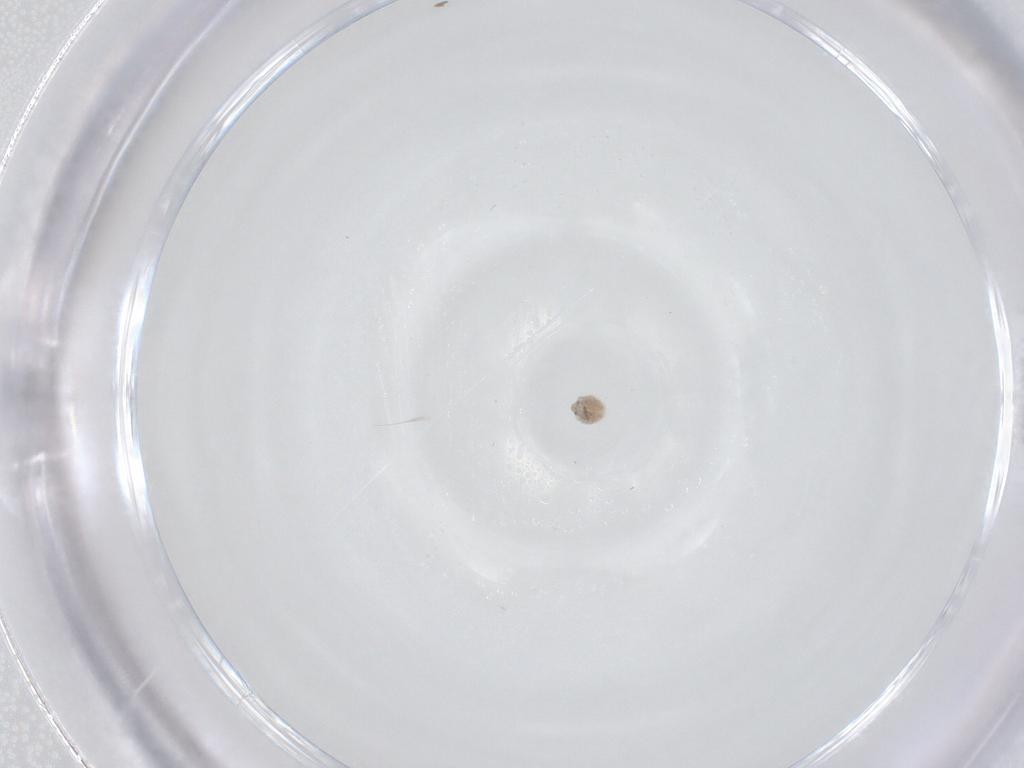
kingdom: Animalia
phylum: Arthropoda
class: Arachnida
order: Trombidiformes
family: Pionidae
